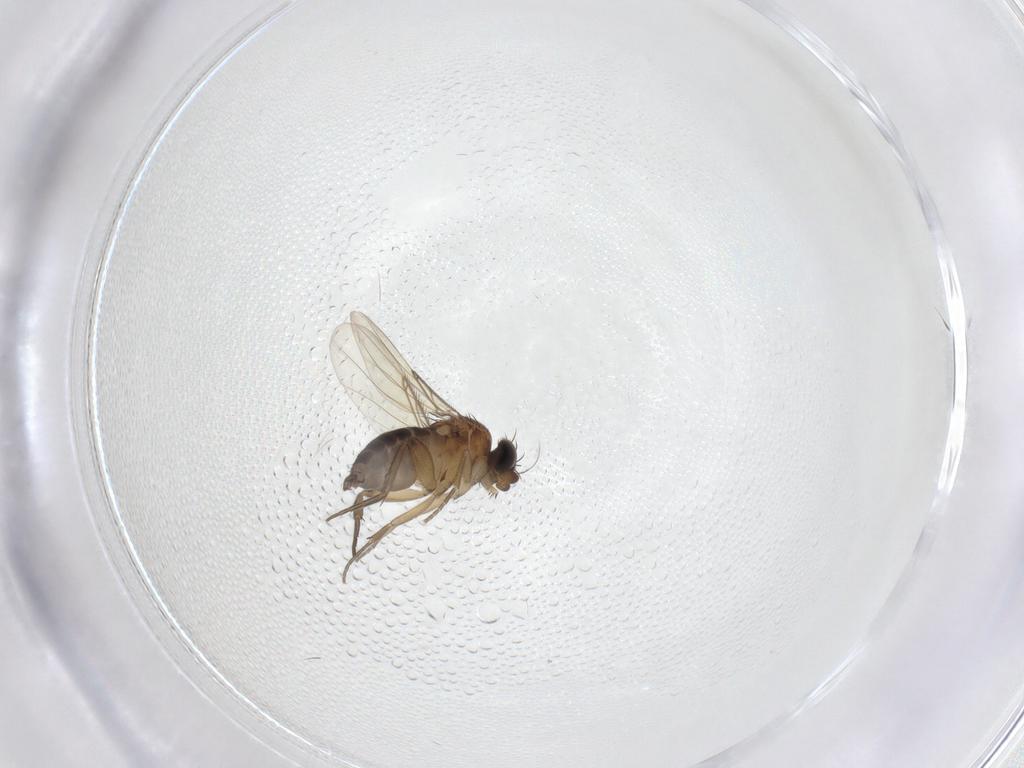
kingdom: Animalia
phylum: Arthropoda
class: Insecta
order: Diptera
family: Phoridae
